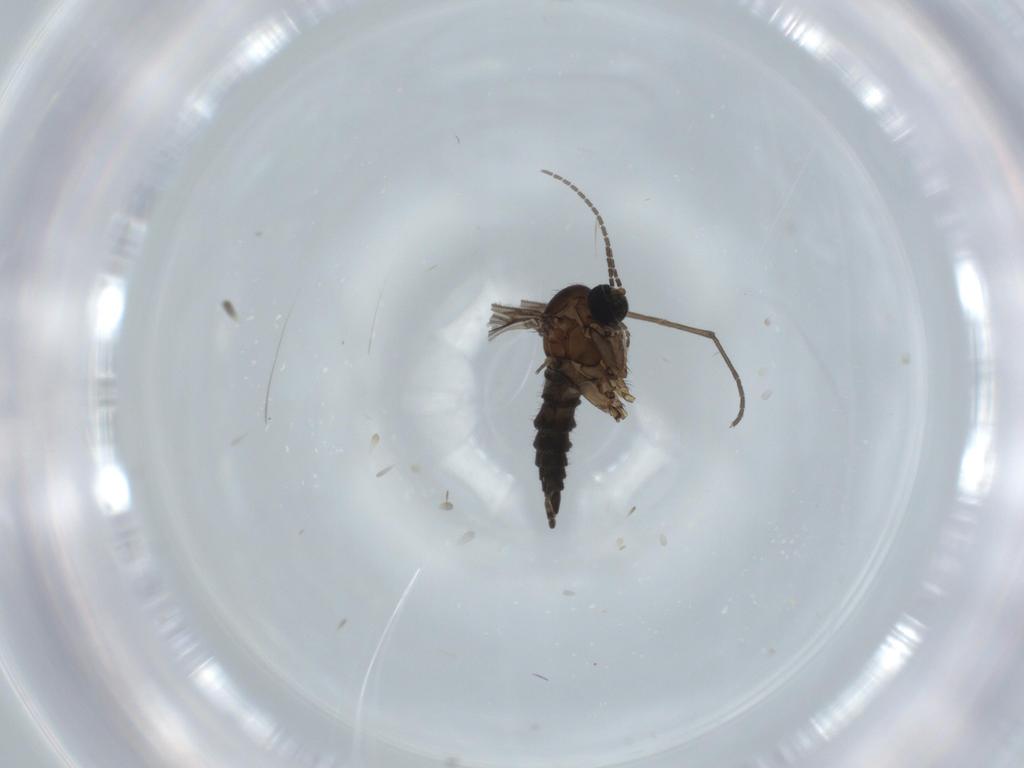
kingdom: Animalia
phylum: Arthropoda
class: Insecta
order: Diptera
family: Sciaridae
